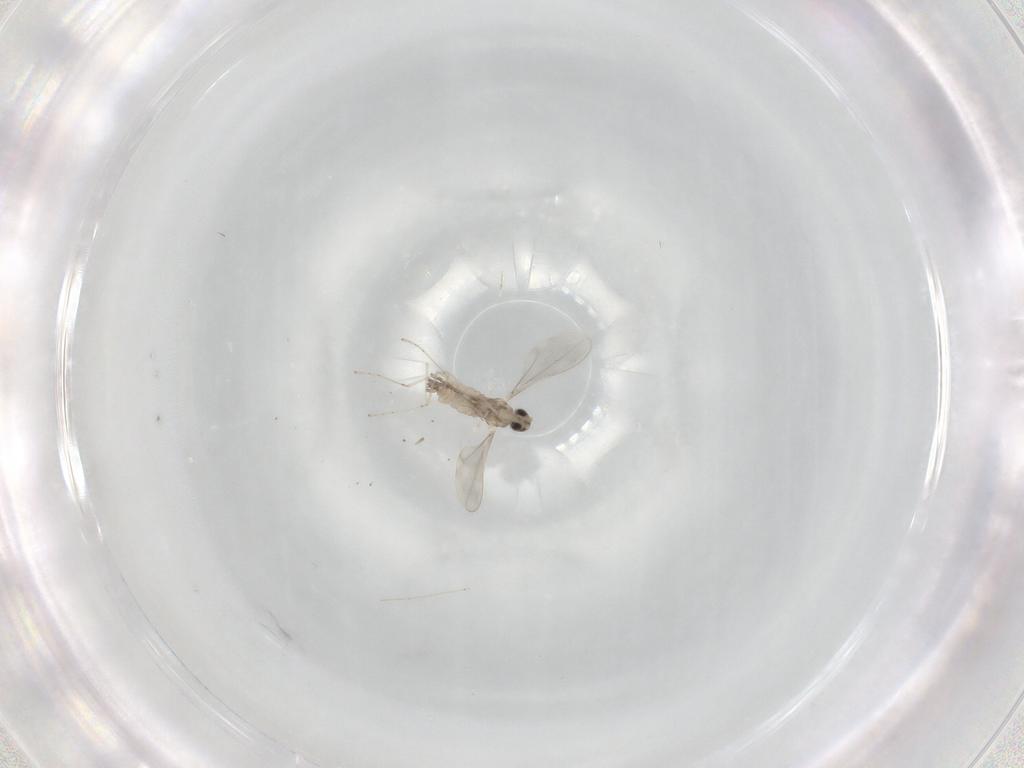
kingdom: Animalia
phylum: Arthropoda
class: Insecta
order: Diptera
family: Cecidomyiidae
